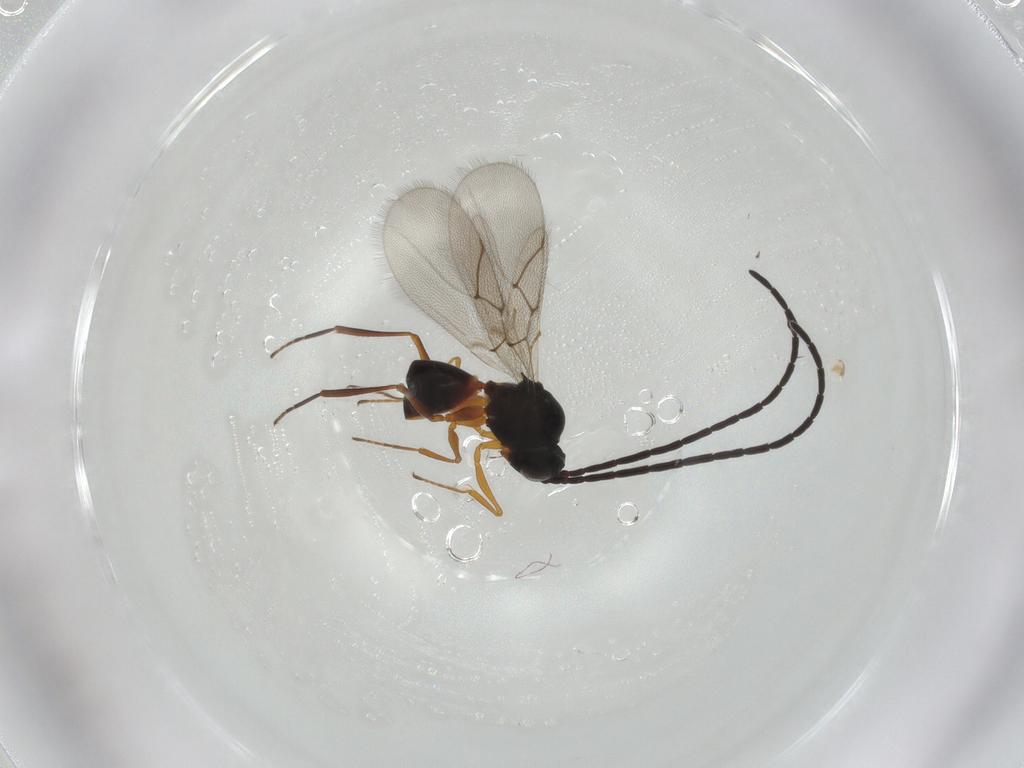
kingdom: Animalia
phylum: Arthropoda
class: Insecta
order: Hymenoptera
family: Figitidae
